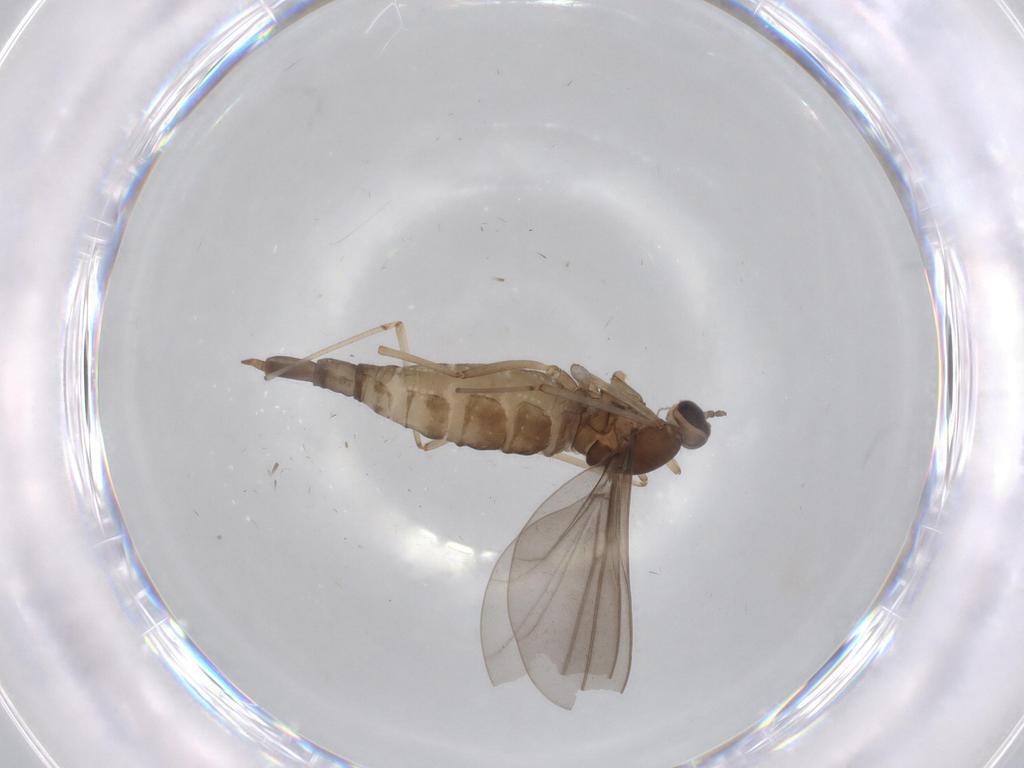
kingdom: Animalia
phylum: Arthropoda
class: Insecta
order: Diptera
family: Cecidomyiidae
